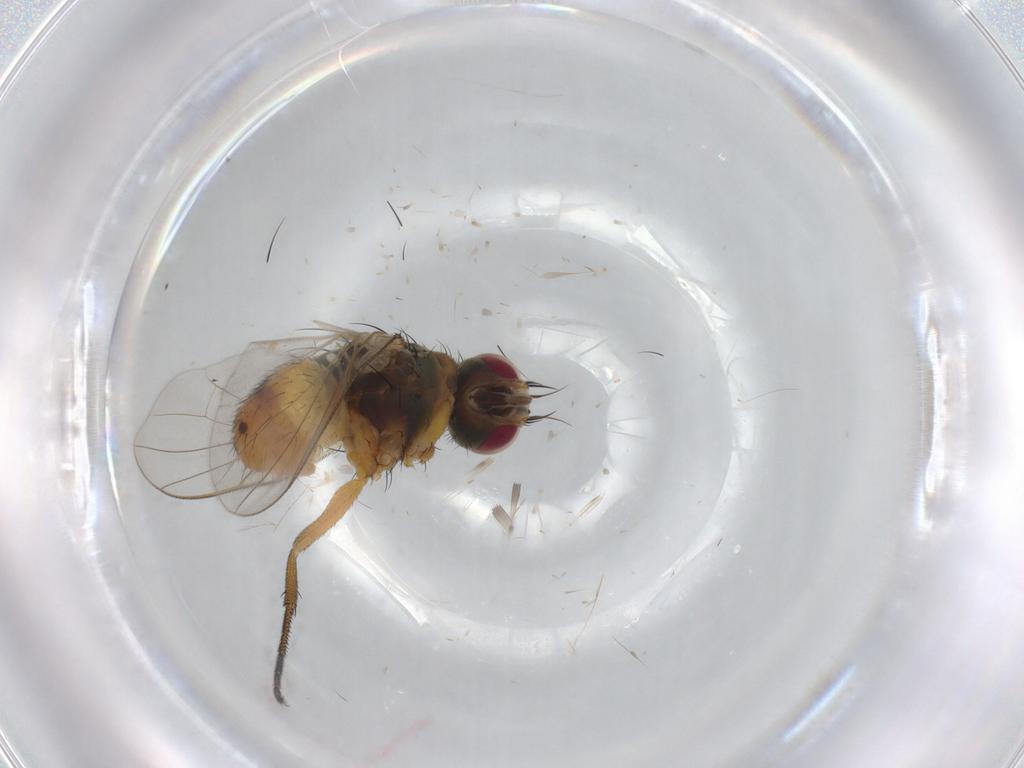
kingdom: Animalia
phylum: Arthropoda
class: Insecta
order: Diptera
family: Muscidae
